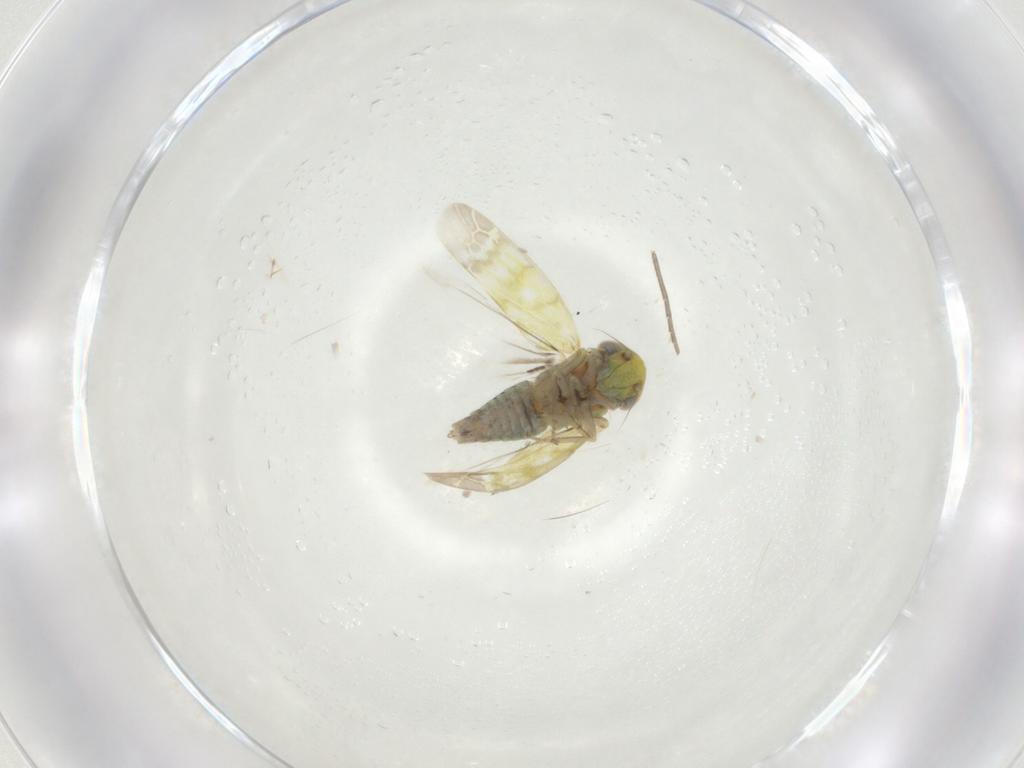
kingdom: Animalia
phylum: Arthropoda
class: Insecta
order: Hemiptera
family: Cicadellidae
